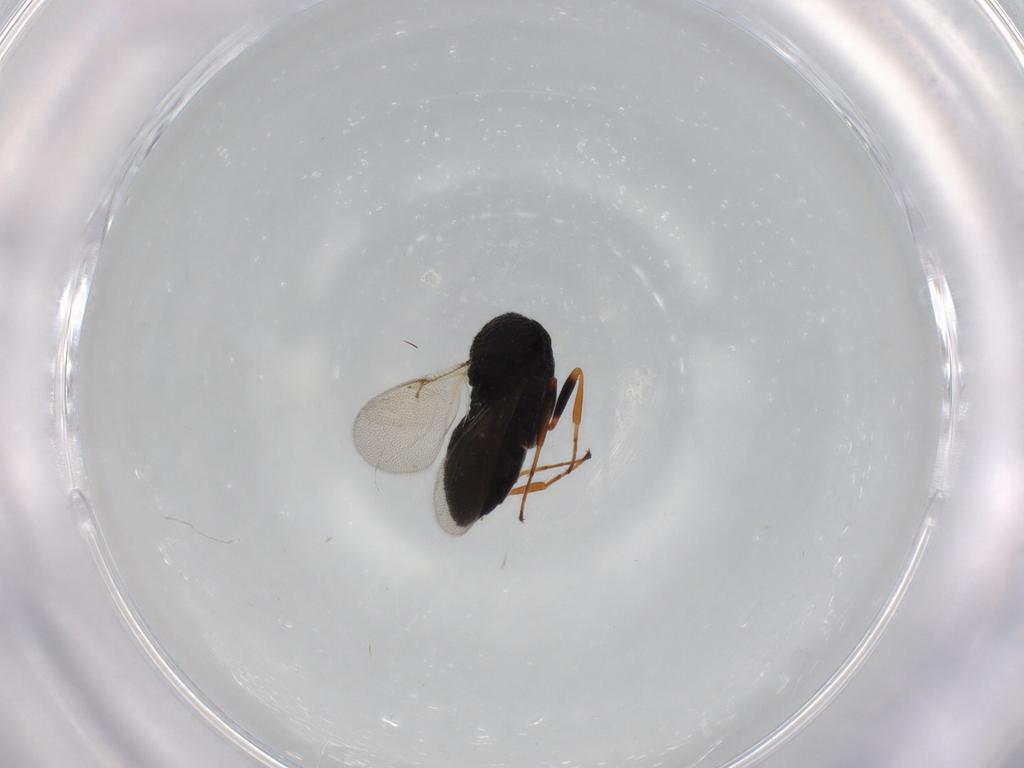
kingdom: Animalia
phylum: Arthropoda
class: Insecta
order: Hymenoptera
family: Scelionidae
